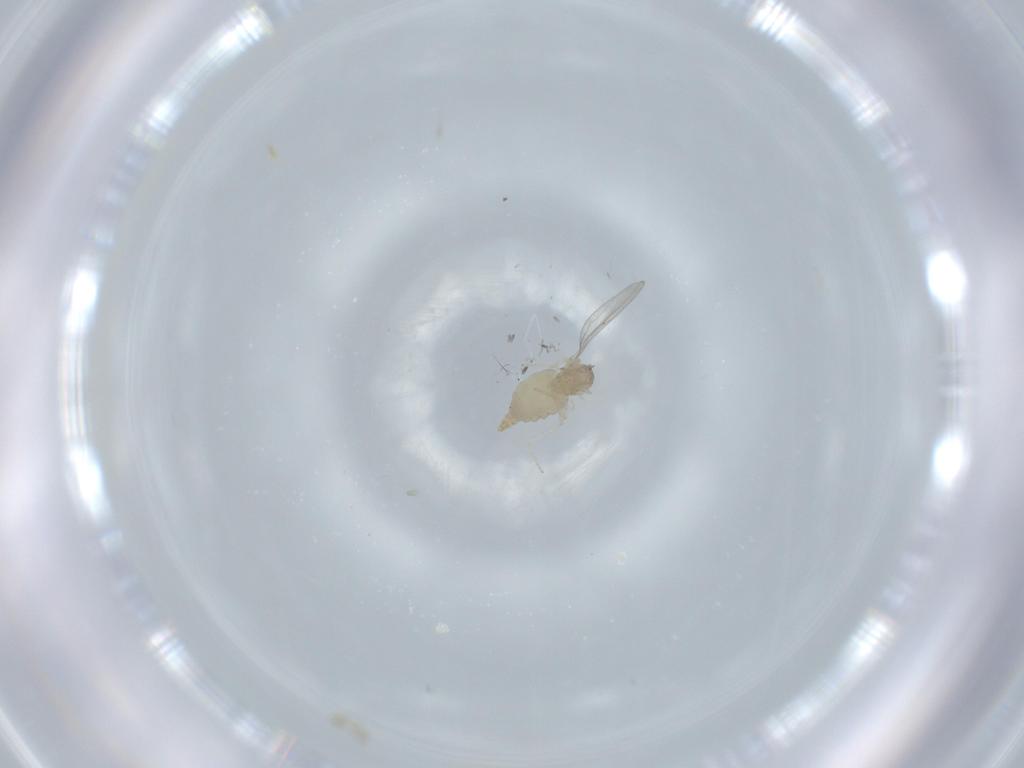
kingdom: Animalia
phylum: Arthropoda
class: Insecta
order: Diptera
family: Cecidomyiidae
